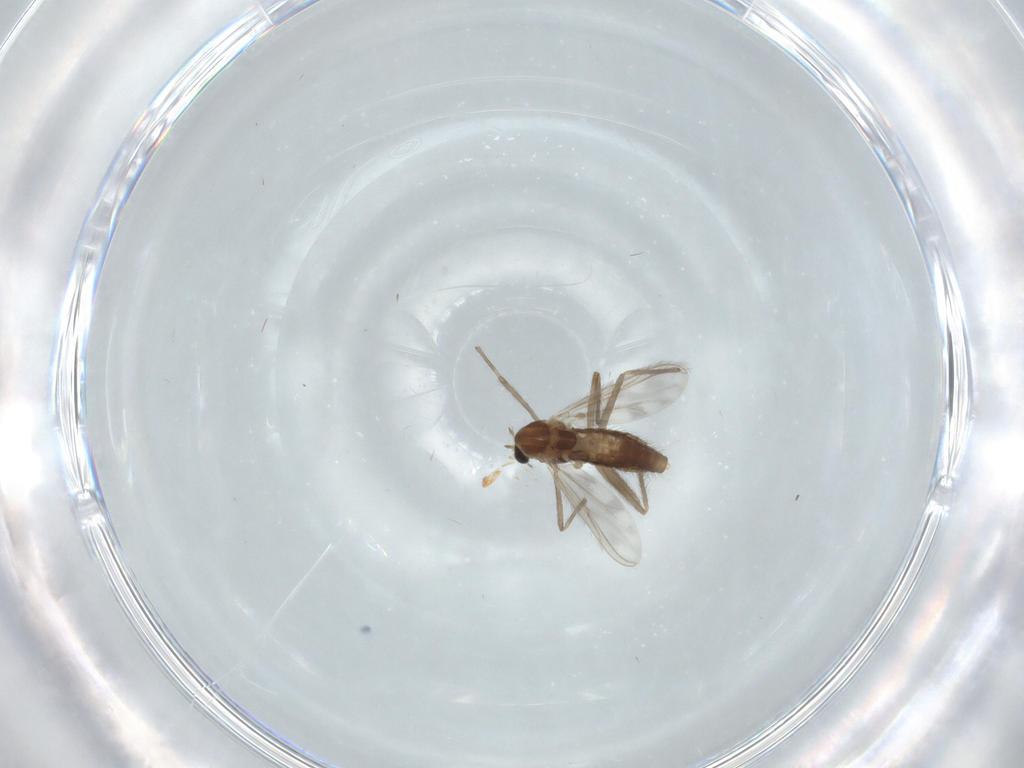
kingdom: Animalia
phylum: Arthropoda
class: Insecta
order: Diptera
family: Chironomidae
